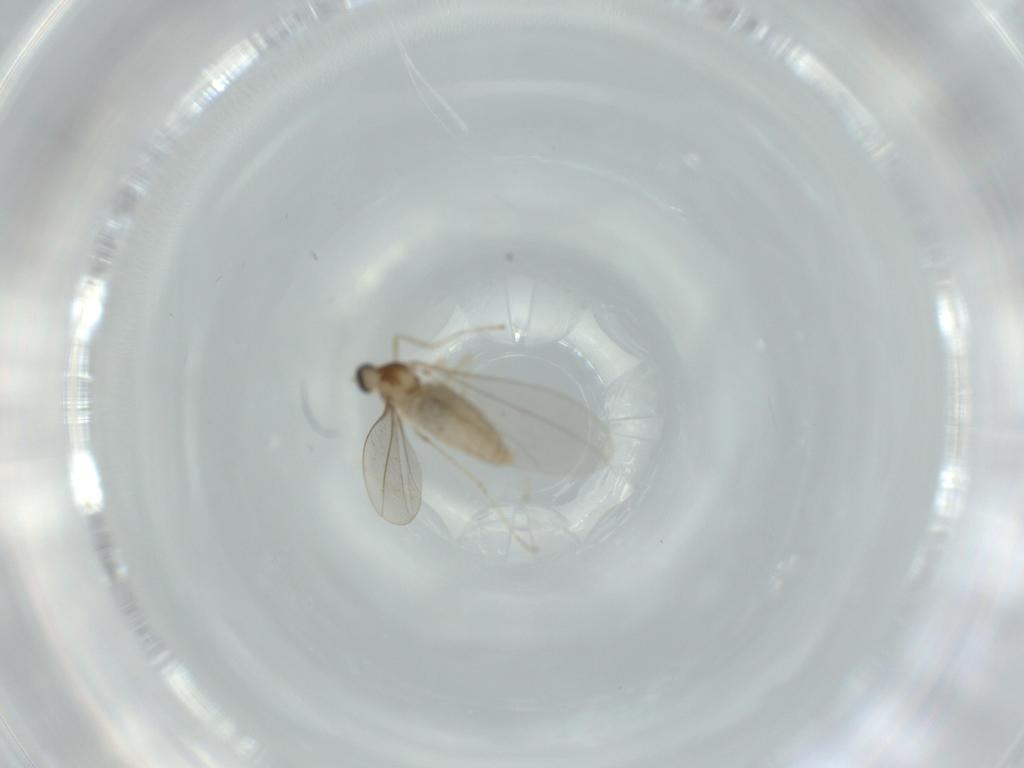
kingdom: Animalia
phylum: Arthropoda
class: Insecta
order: Diptera
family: Cecidomyiidae
